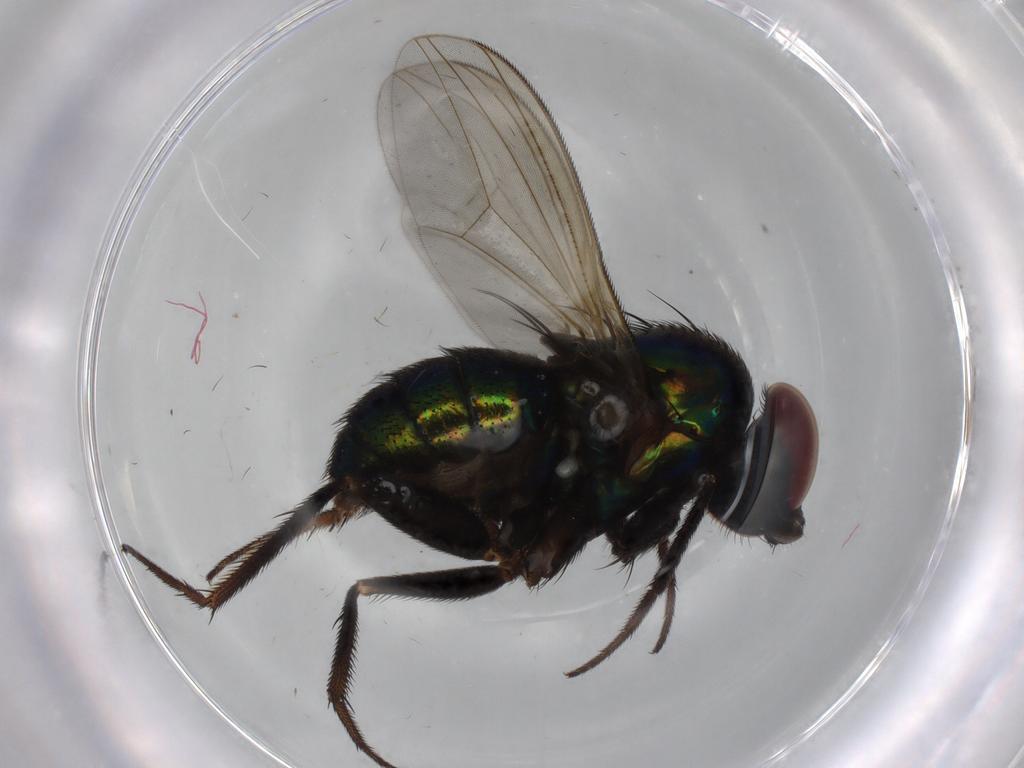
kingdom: Animalia
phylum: Arthropoda
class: Insecta
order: Diptera
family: Dolichopodidae
